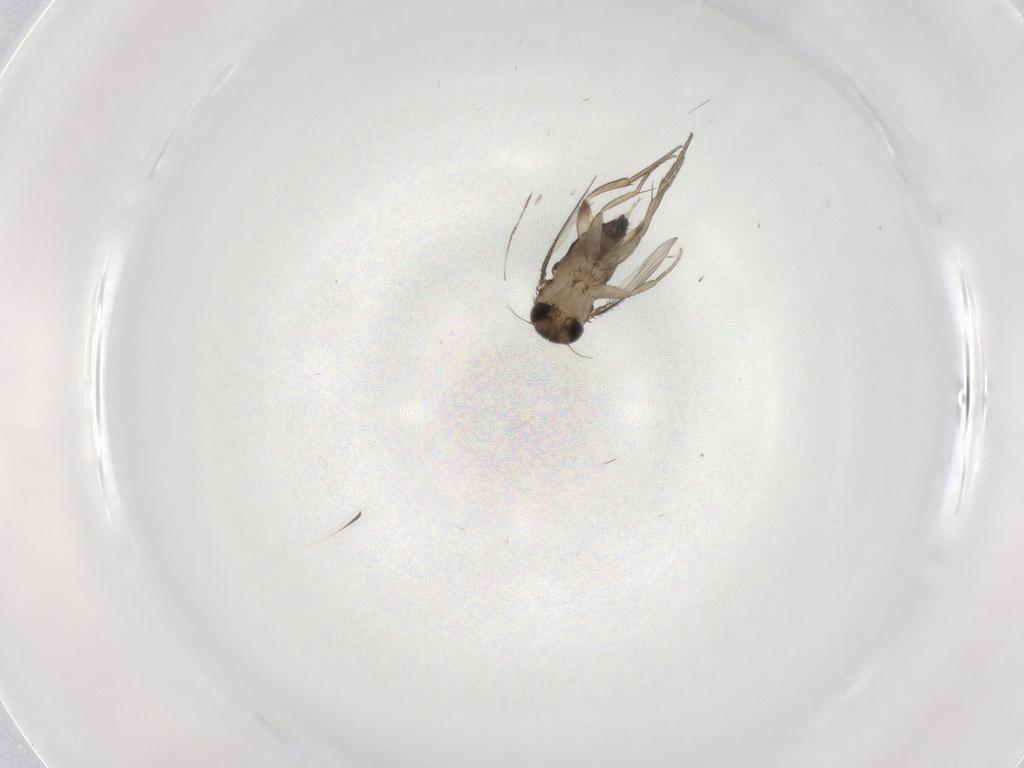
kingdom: Animalia
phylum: Arthropoda
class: Insecta
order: Diptera
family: Phoridae
